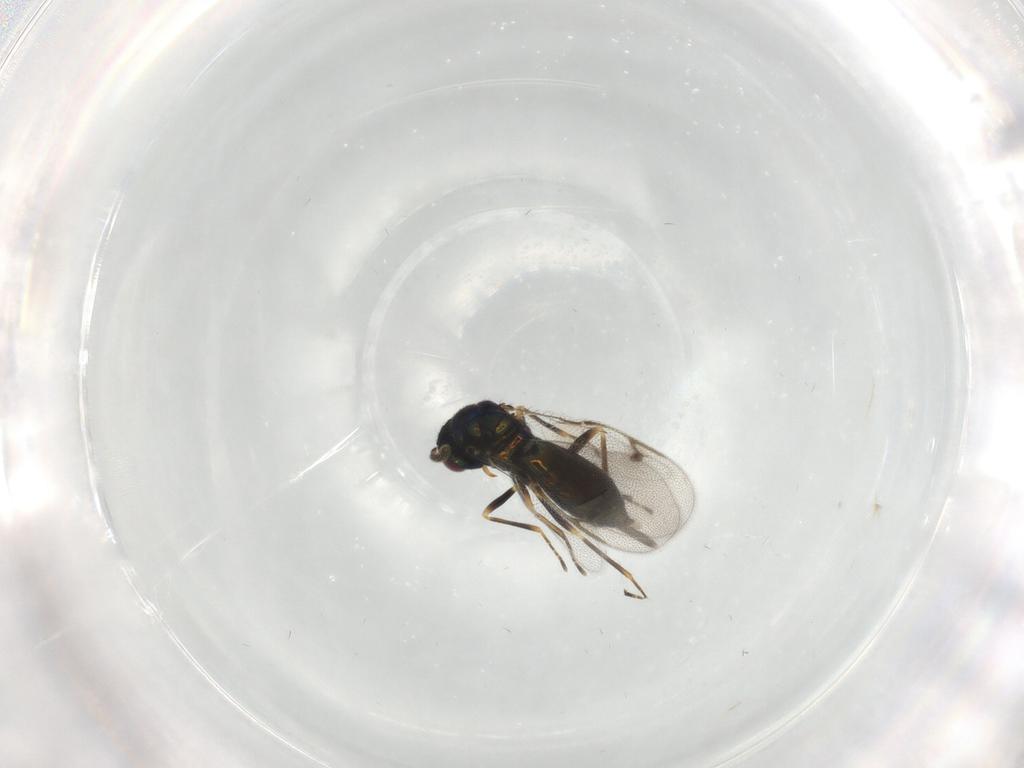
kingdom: Animalia
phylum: Arthropoda
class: Insecta
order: Hymenoptera
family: Pirenidae
